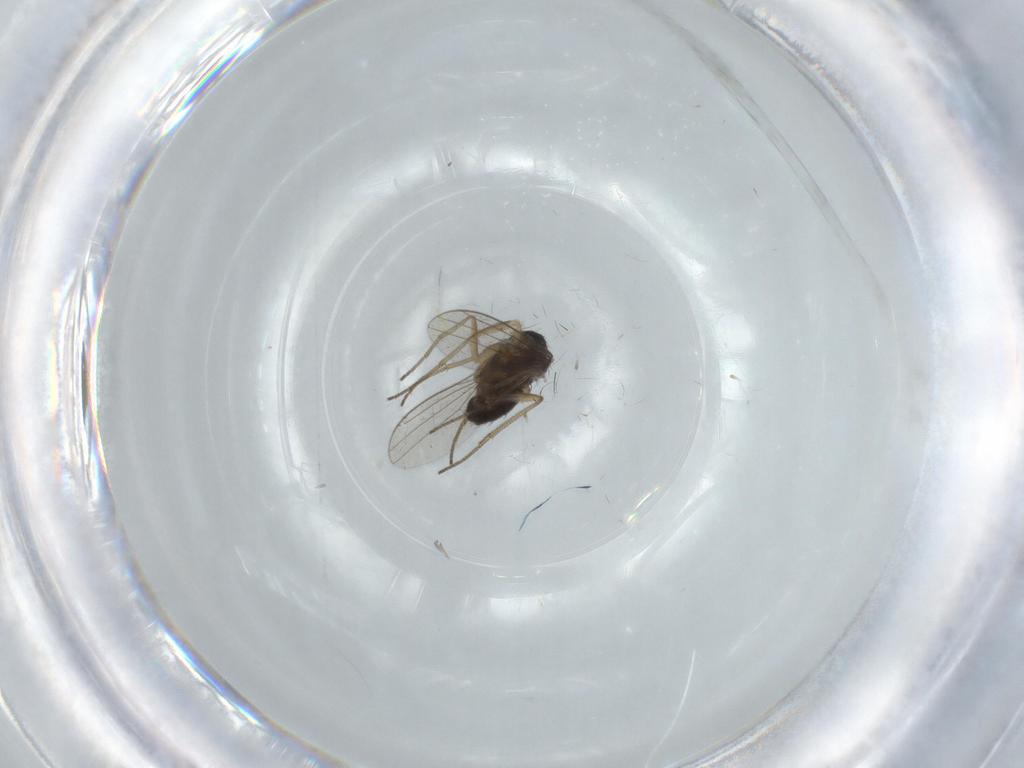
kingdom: Animalia
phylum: Arthropoda
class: Insecta
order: Diptera
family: Dolichopodidae
